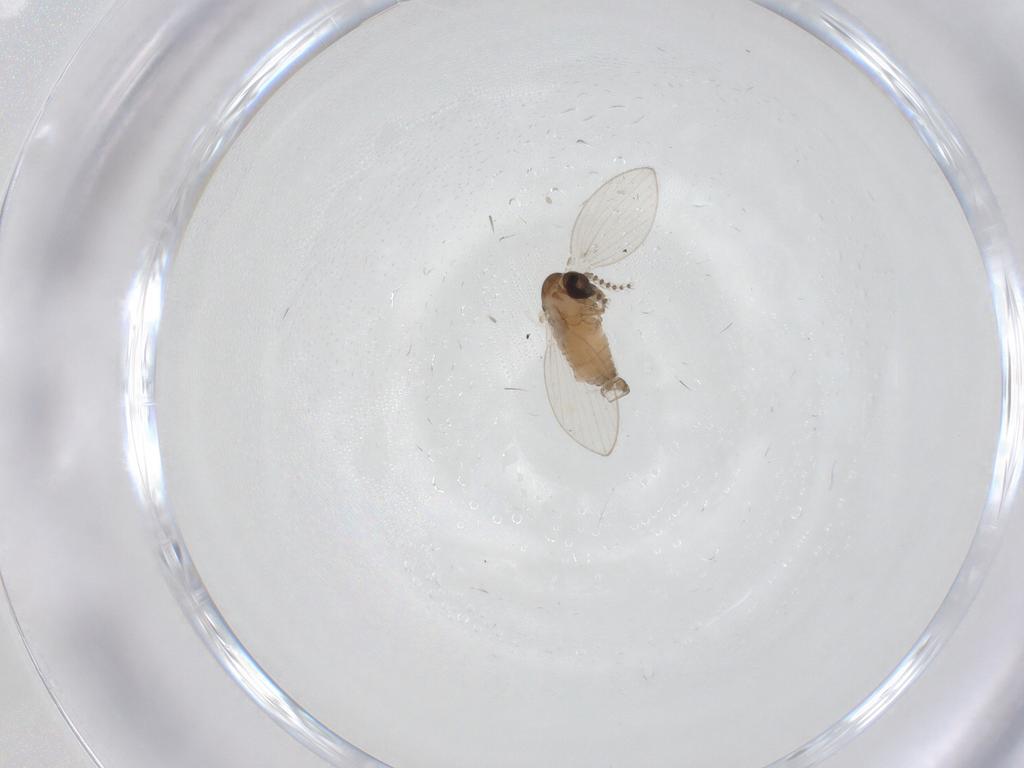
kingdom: Animalia
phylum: Arthropoda
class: Insecta
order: Diptera
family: Psychodidae
